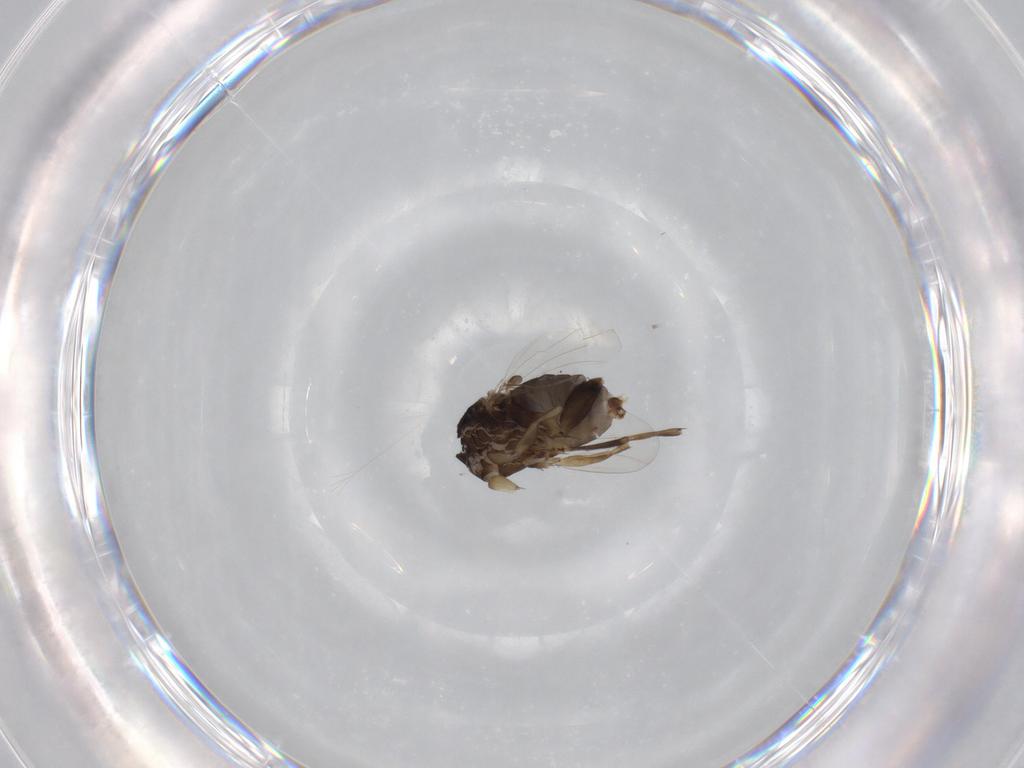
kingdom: Animalia
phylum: Arthropoda
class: Insecta
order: Diptera
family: Phoridae
